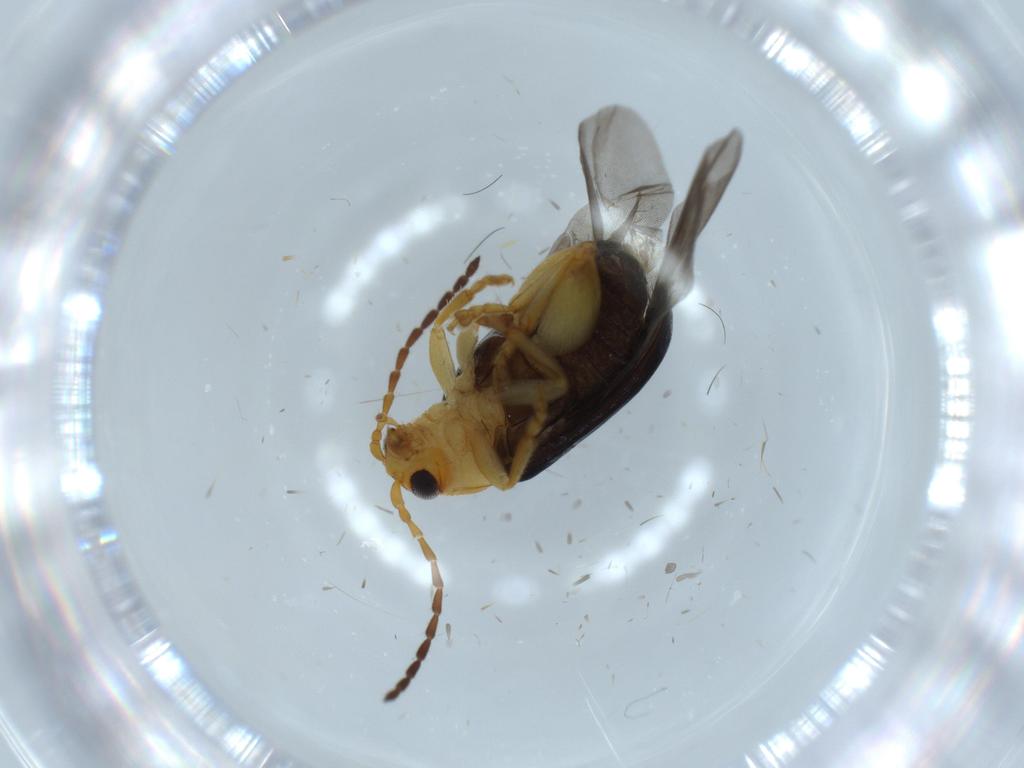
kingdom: Animalia
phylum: Arthropoda
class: Insecta
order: Coleoptera
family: Chrysomelidae
